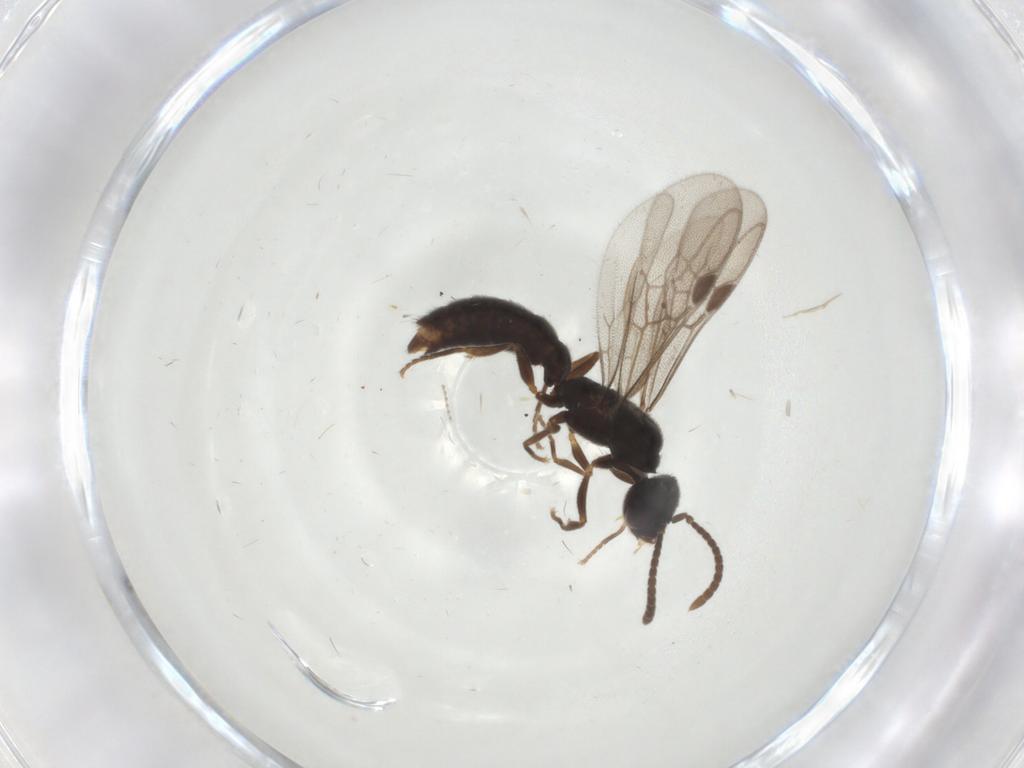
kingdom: Animalia
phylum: Arthropoda
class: Insecta
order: Hymenoptera
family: Formicidae
